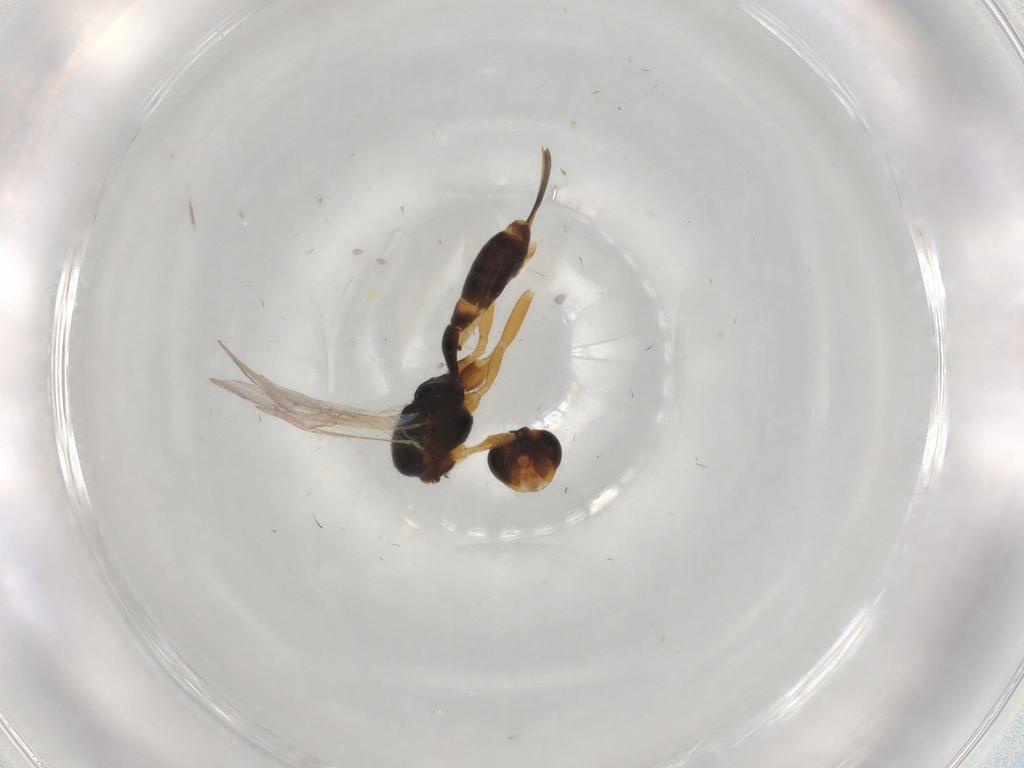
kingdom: Animalia
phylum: Arthropoda
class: Insecta
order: Hymenoptera
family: Ichneumonidae
